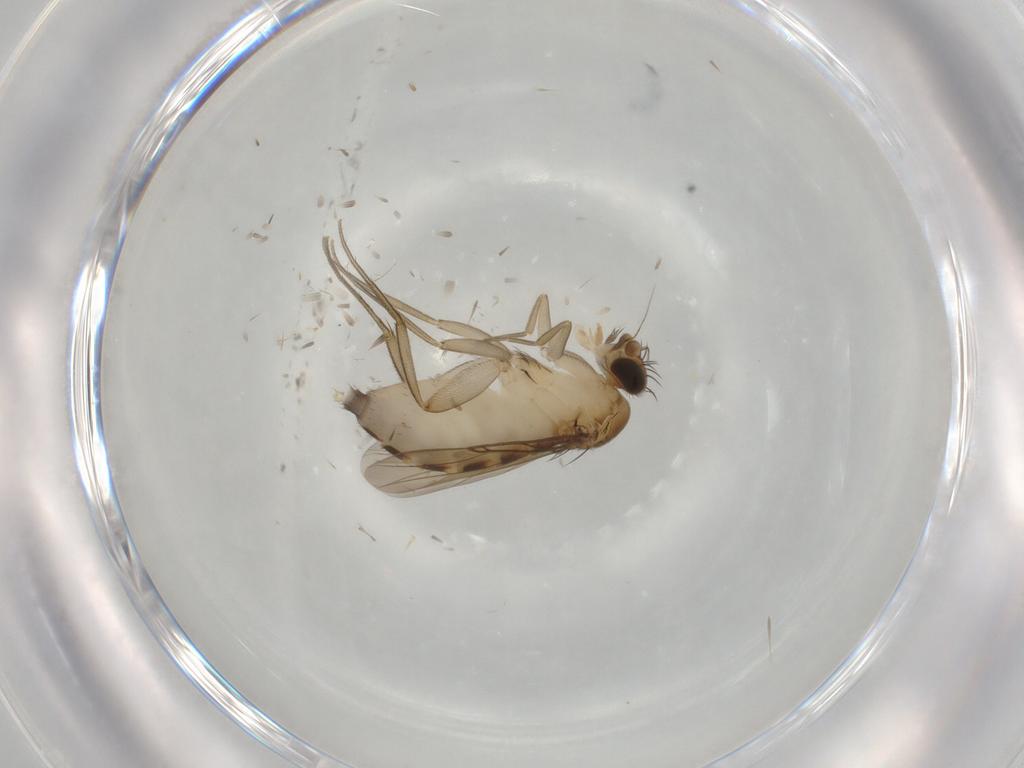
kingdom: Animalia
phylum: Arthropoda
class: Insecta
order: Diptera
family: Phoridae
